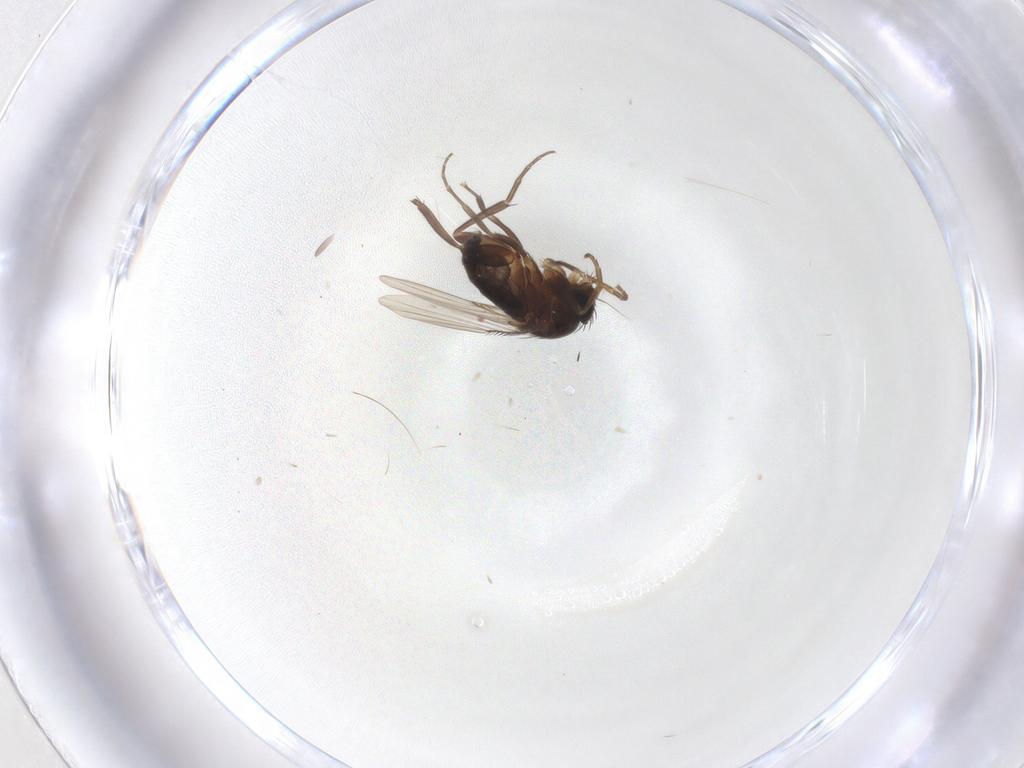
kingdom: Animalia
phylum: Arthropoda
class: Insecta
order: Diptera
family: Phoridae
